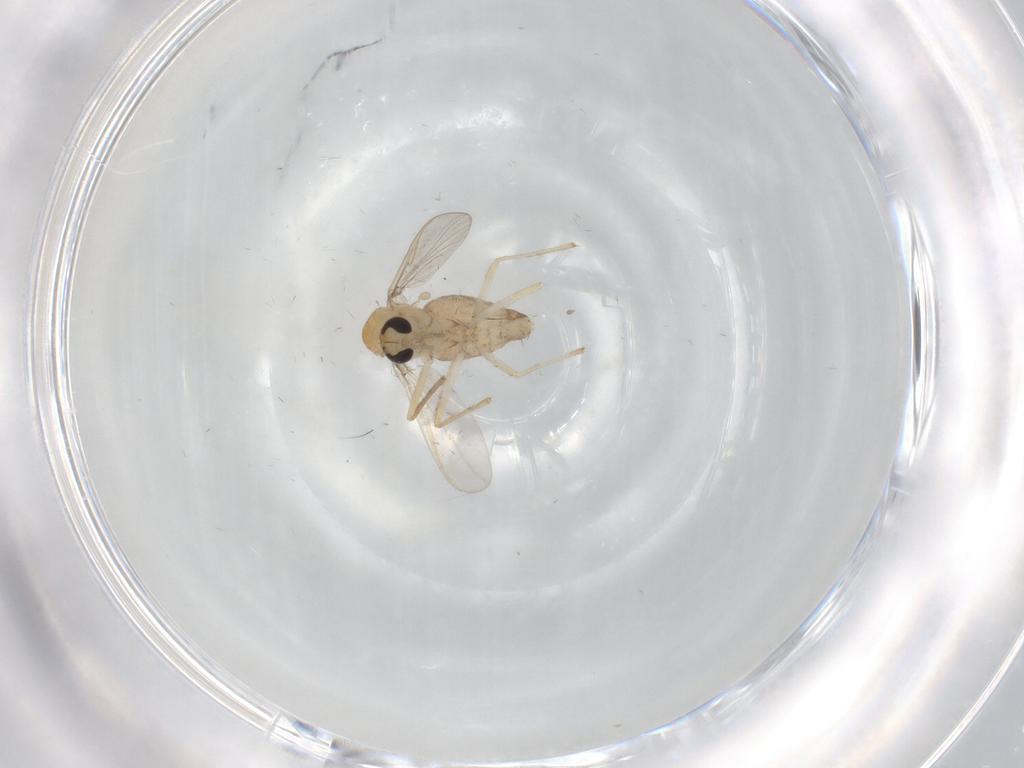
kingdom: Animalia
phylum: Arthropoda
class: Insecta
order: Diptera
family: Chironomidae
